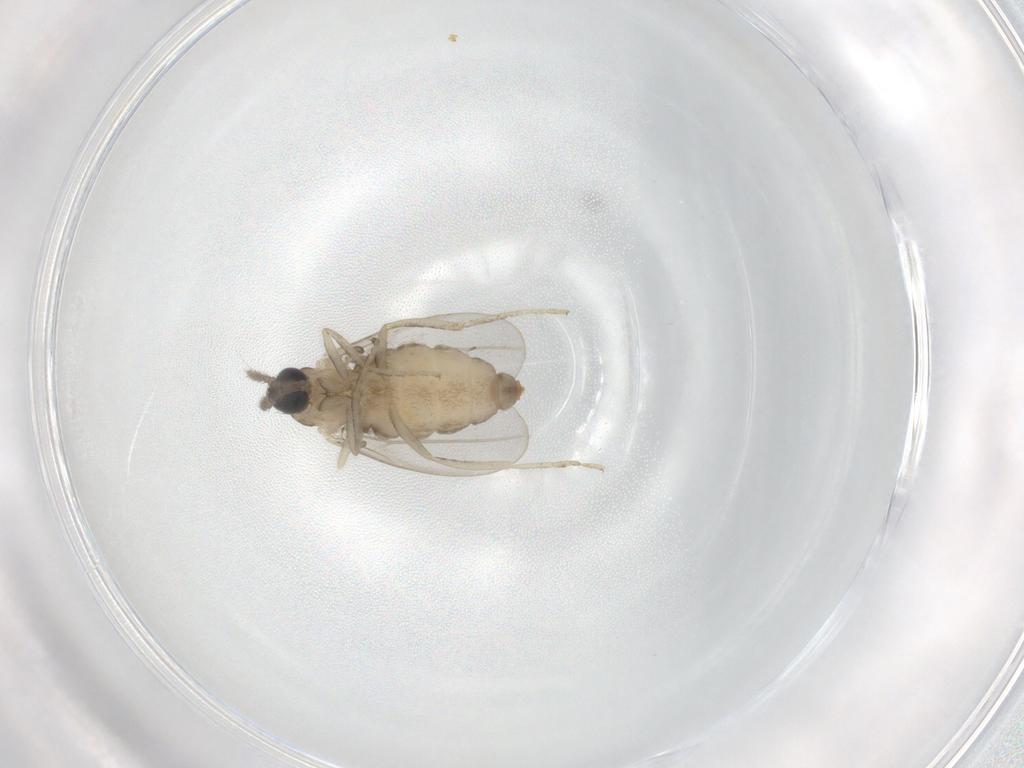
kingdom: Animalia
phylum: Arthropoda
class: Insecta
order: Diptera
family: Cecidomyiidae
